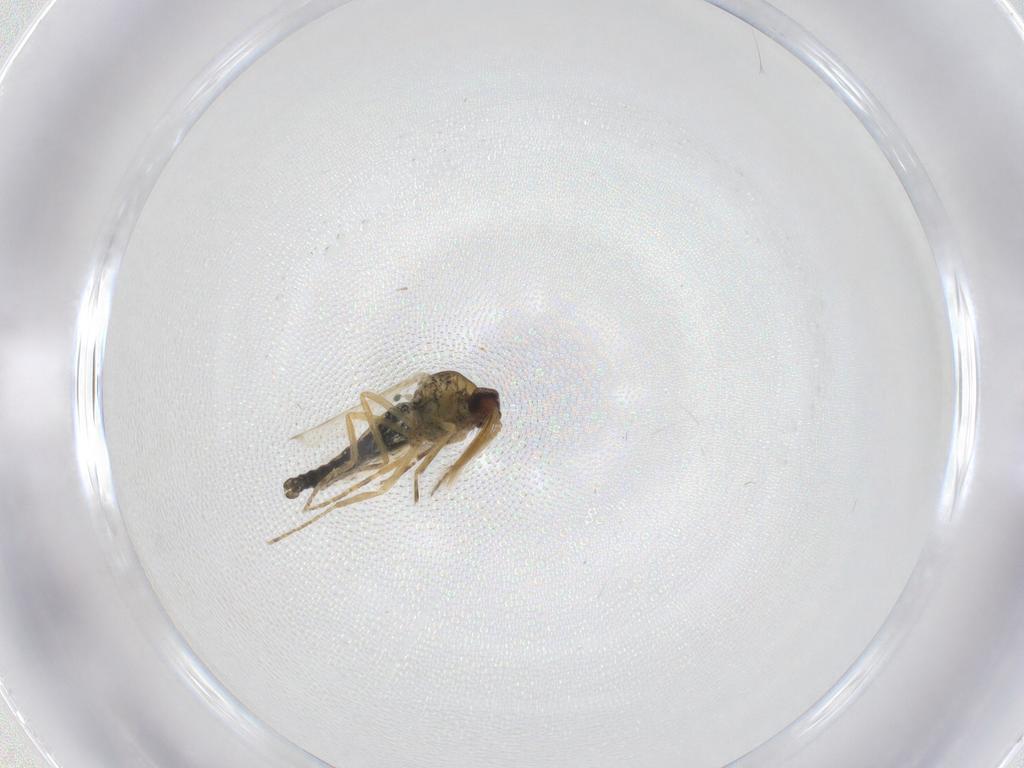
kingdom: Animalia
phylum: Arthropoda
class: Insecta
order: Diptera
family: Ceratopogonidae
